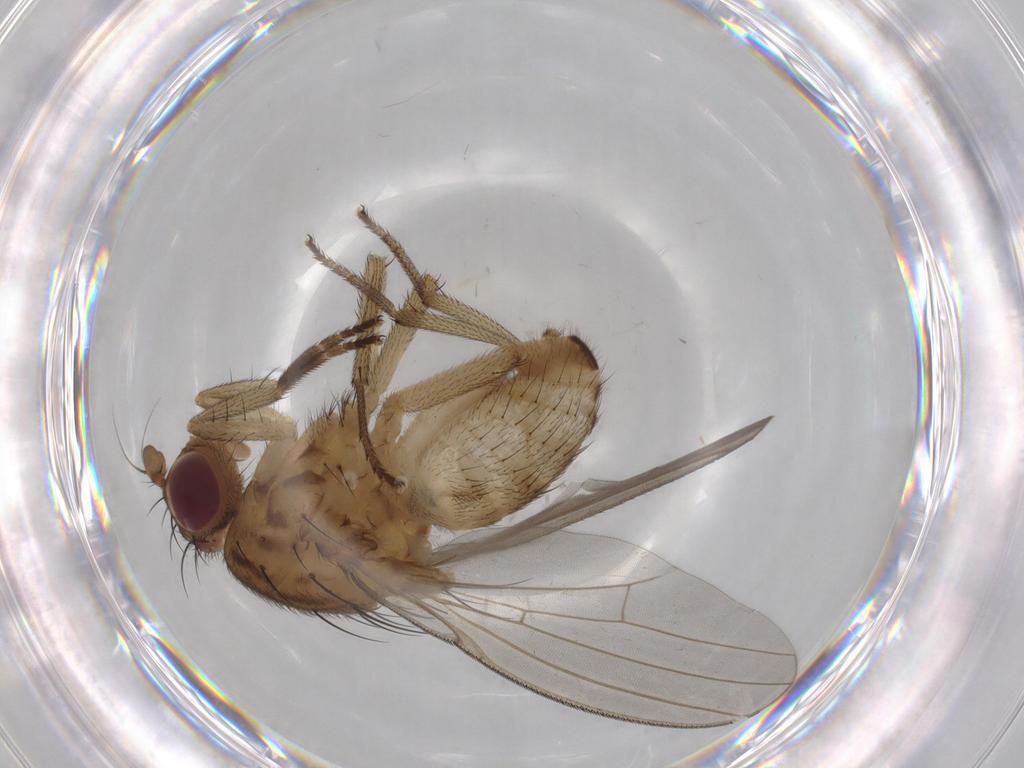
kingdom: Animalia
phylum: Arthropoda
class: Insecta
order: Diptera
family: Limoniidae
